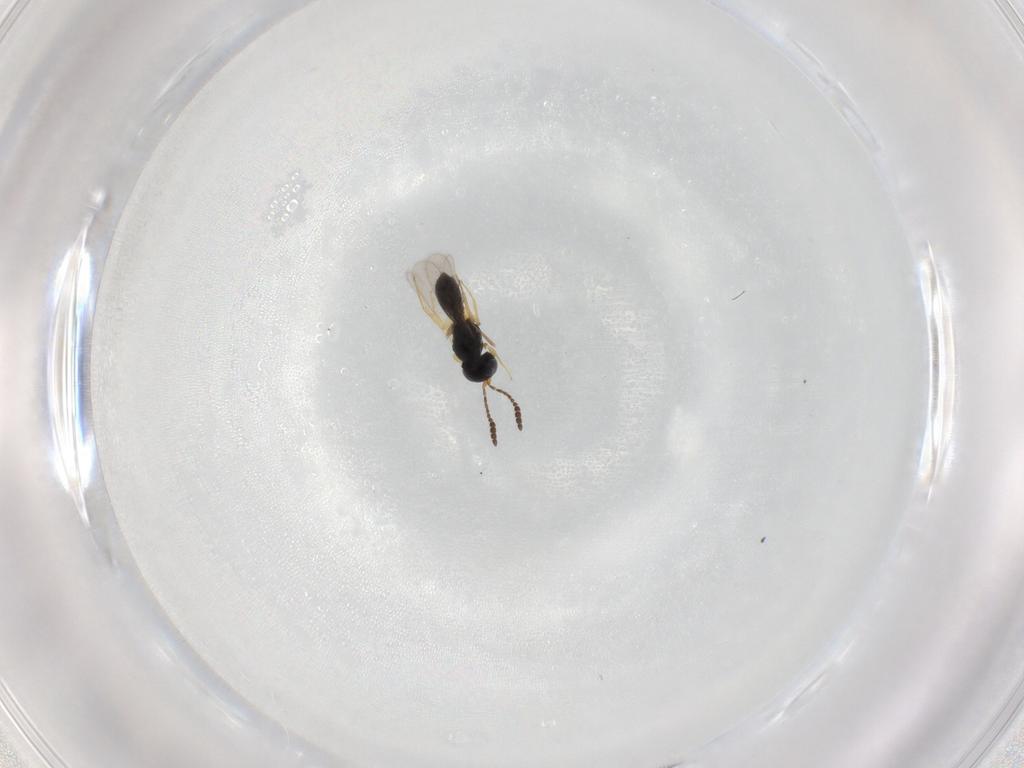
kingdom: Animalia
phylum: Arthropoda
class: Insecta
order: Hymenoptera
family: Scelionidae
